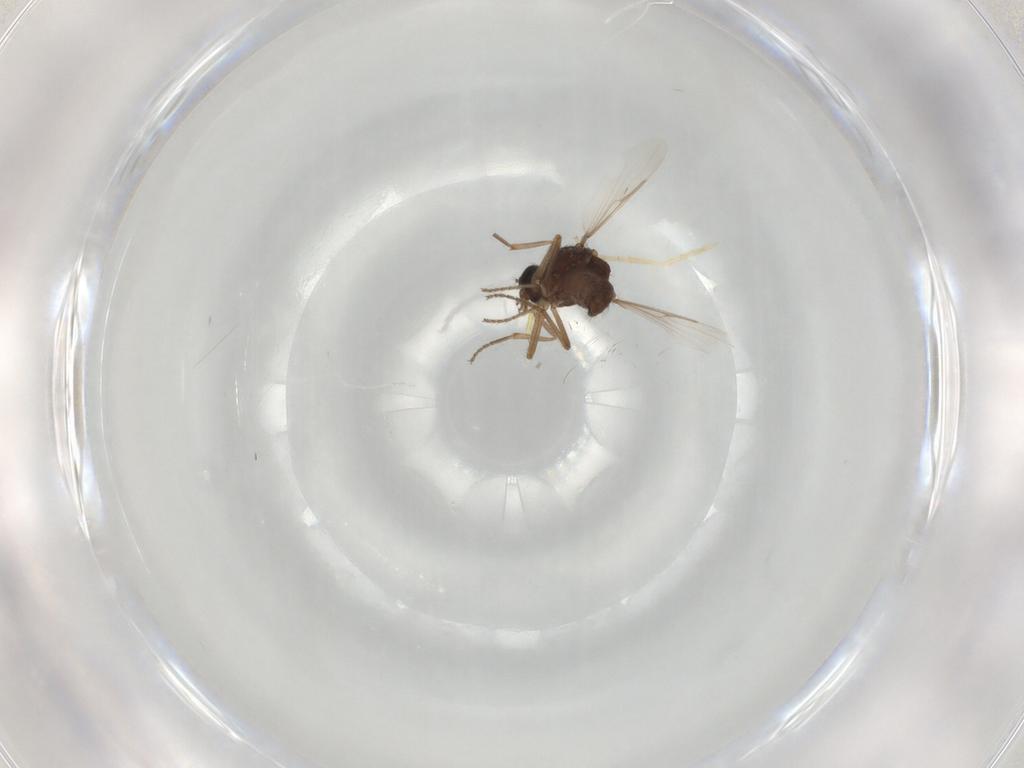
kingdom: Animalia
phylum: Arthropoda
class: Insecta
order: Diptera
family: Ceratopogonidae
